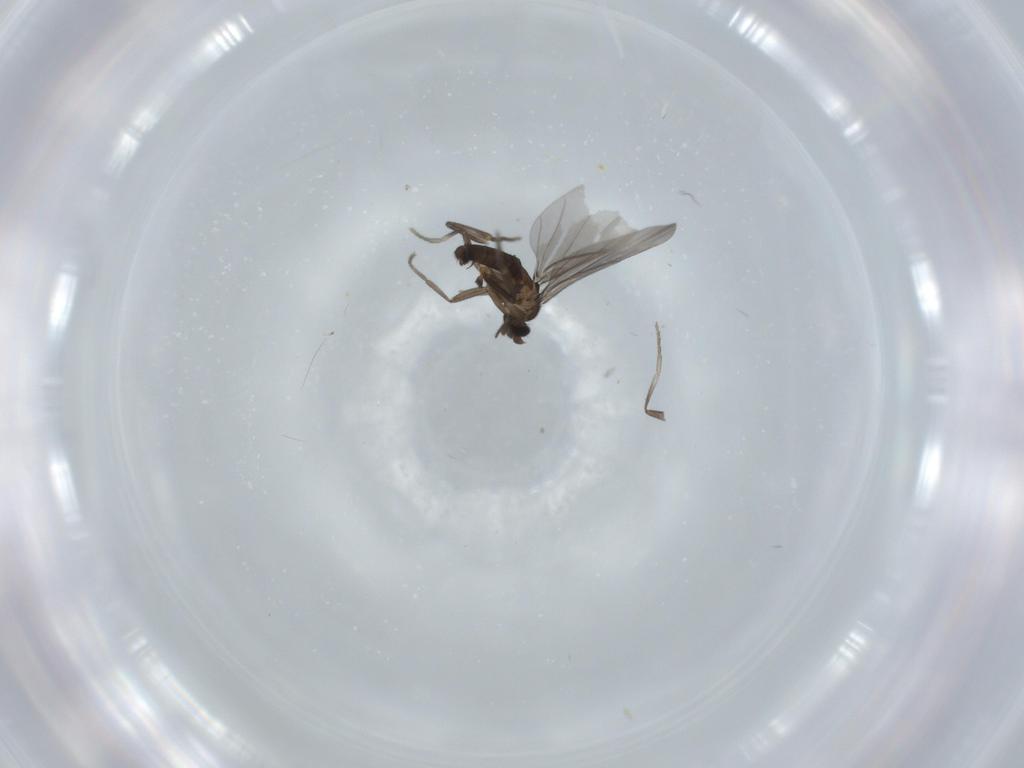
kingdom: Animalia
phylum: Arthropoda
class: Insecta
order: Diptera
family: Phoridae
